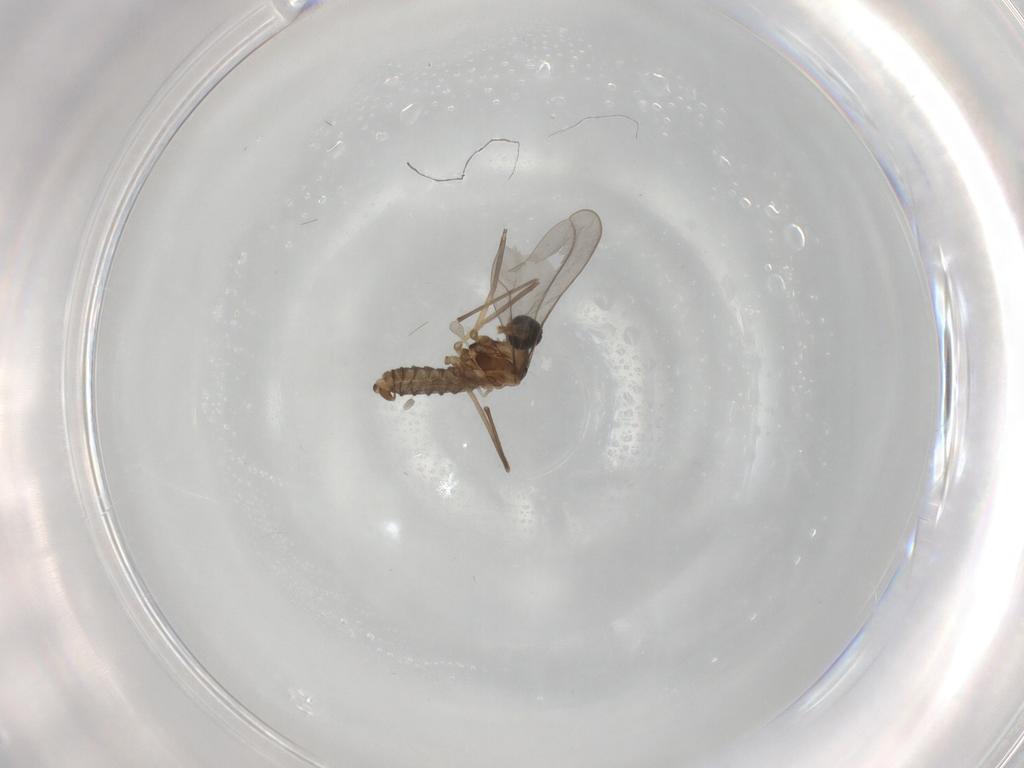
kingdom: Animalia
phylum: Arthropoda
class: Insecta
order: Diptera
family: Cecidomyiidae
